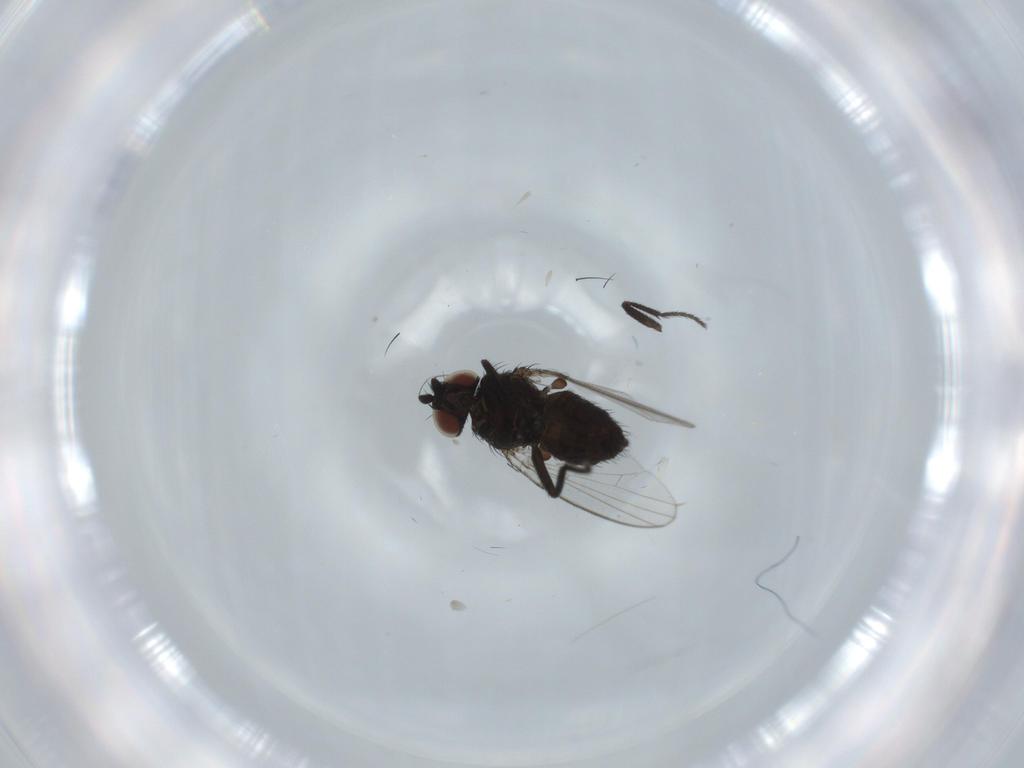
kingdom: Animalia
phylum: Arthropoda
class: Insecta
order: Diptera
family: Milichiidae
